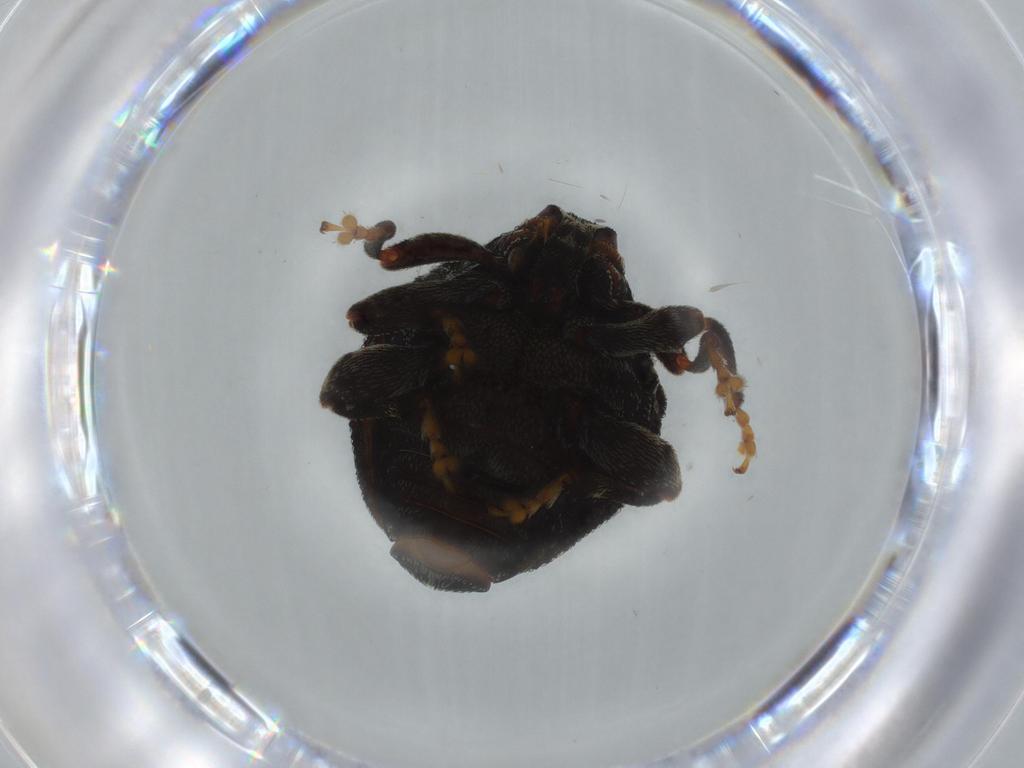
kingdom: Animalia
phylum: Arthropoda
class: Insecta
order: Coleoptera
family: Curculionidae
